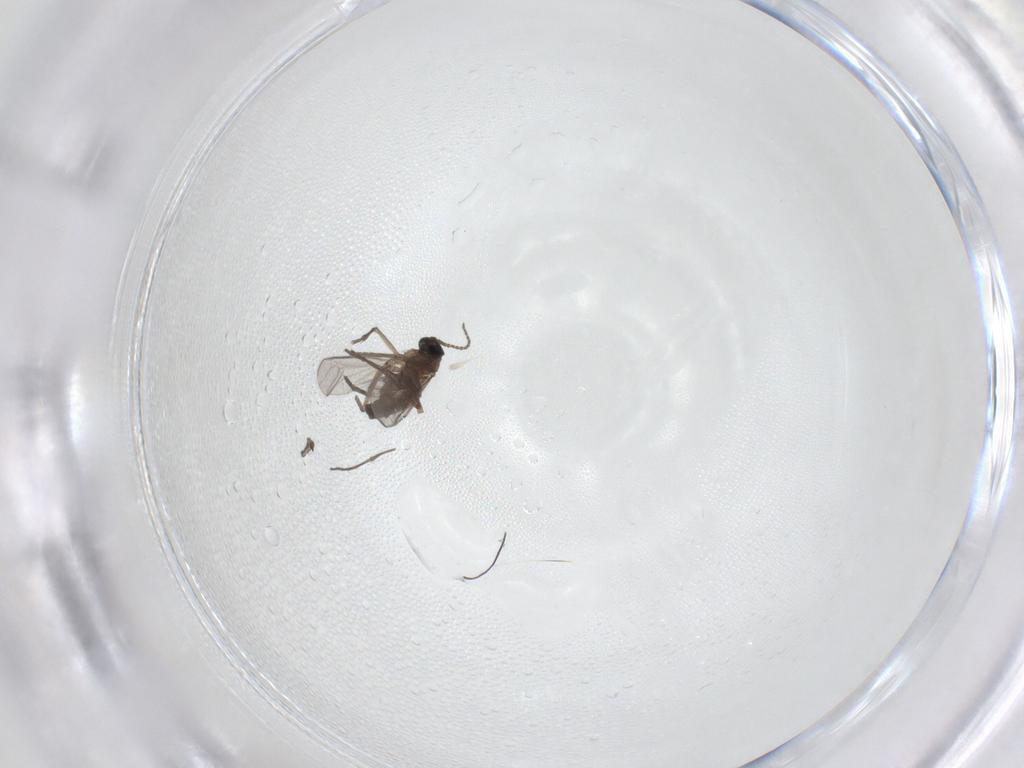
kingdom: Animalia
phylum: Arthropoda
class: Insecta
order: Diptera
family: Sciaridae
